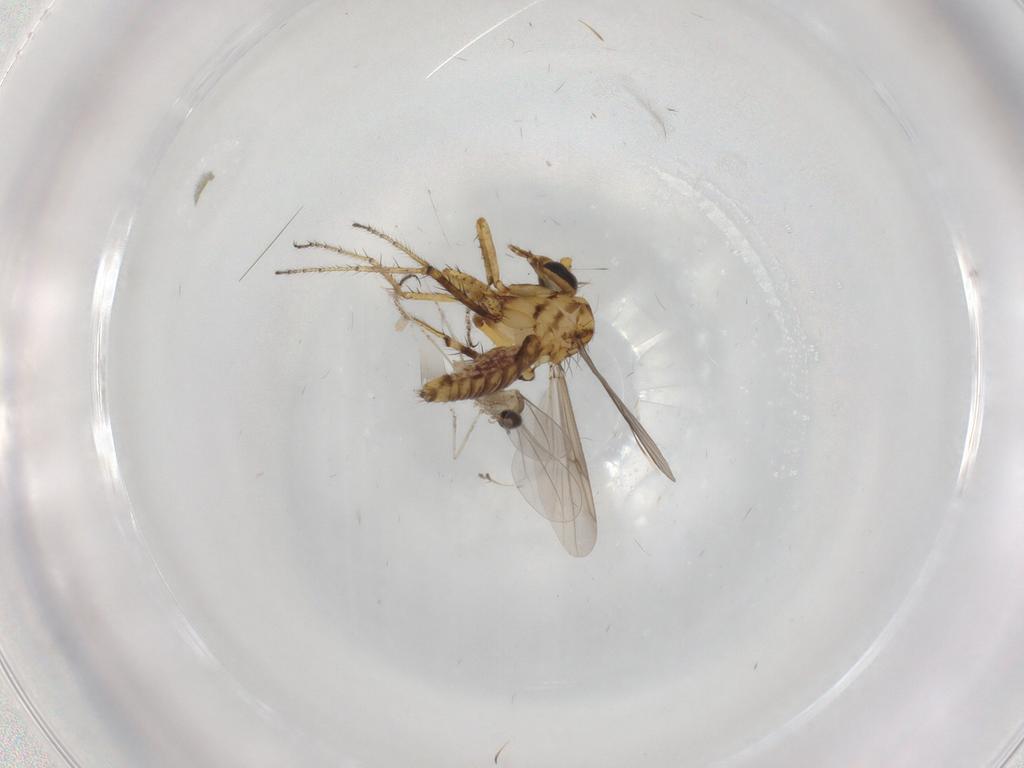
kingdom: Animalia
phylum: Arthropoda
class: Insecta
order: Diptera
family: Cecidomyiidae
